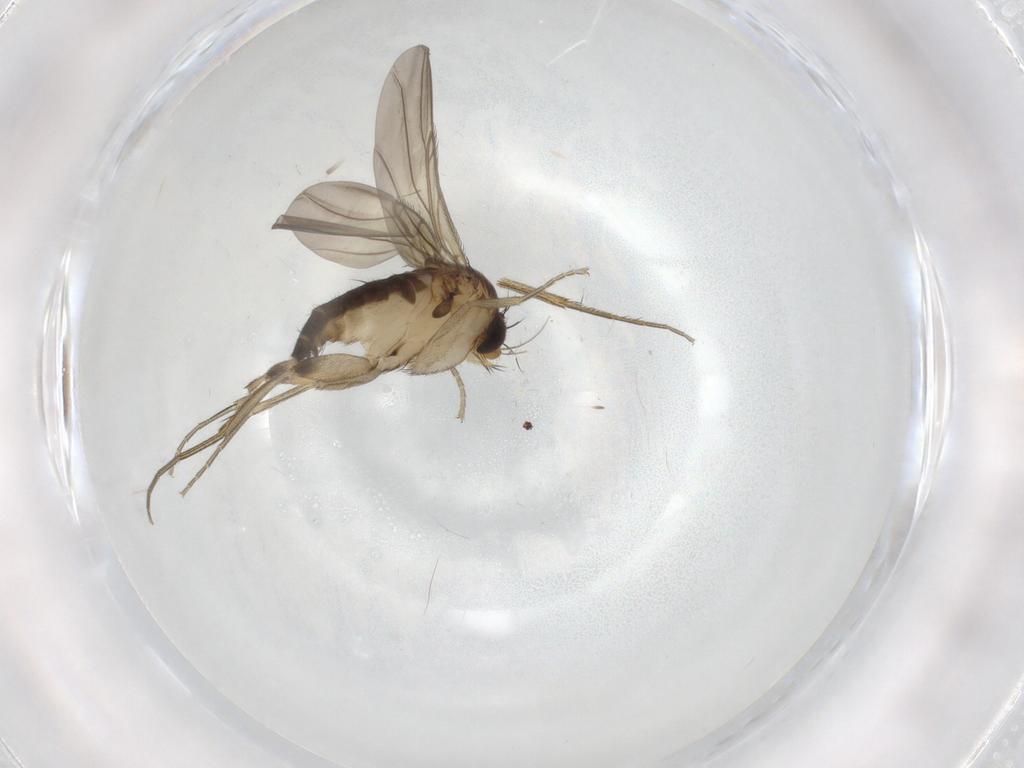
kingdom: Animalia
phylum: Arthropoda
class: Insecta
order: Diptera
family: Phoridae
